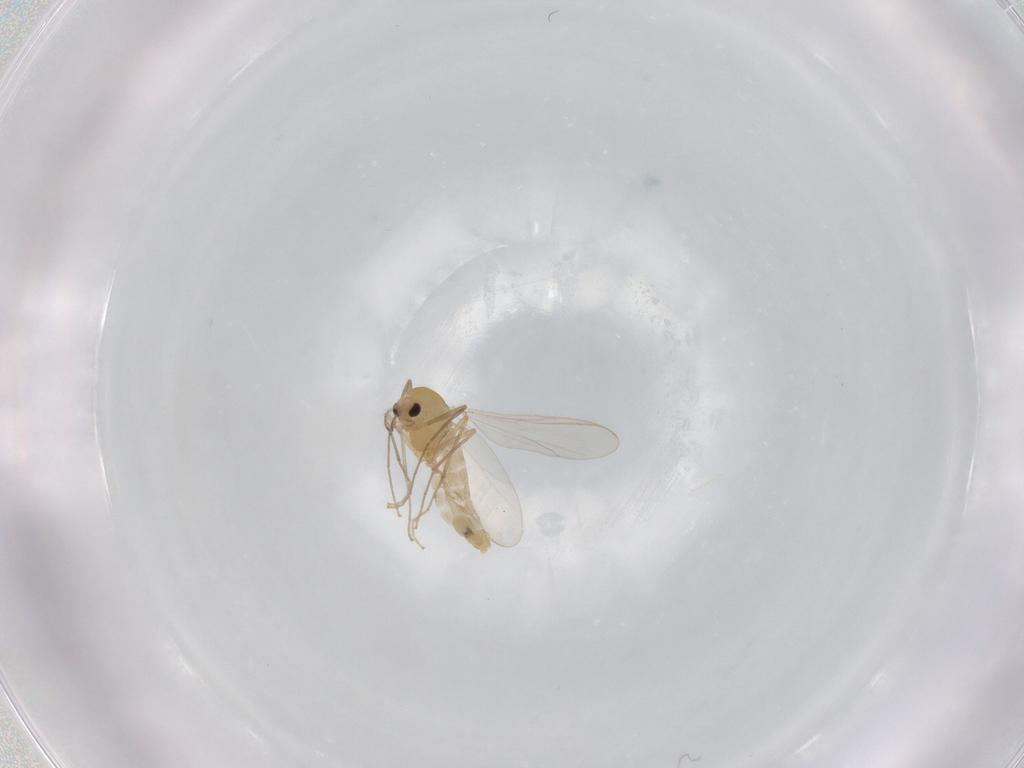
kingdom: Animalia
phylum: Arthropoda
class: Insecta
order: Diptera
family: Chironomidae
